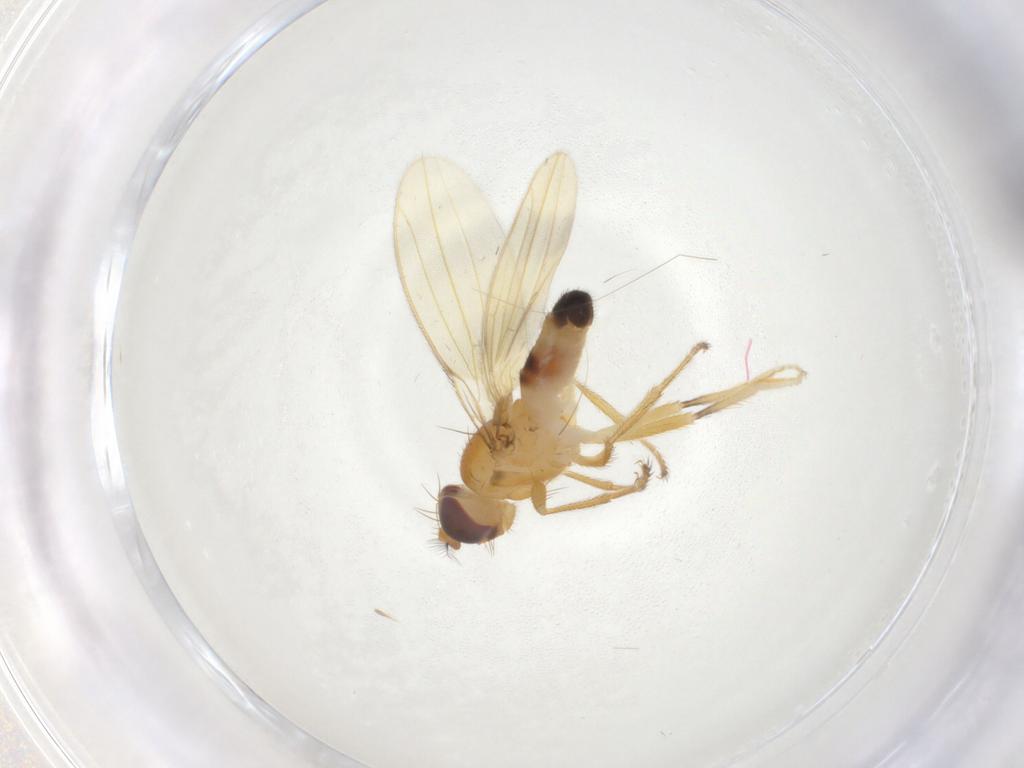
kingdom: Animalia
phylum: Arthropoda
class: Insecta
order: Diptera
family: Periscelididae
